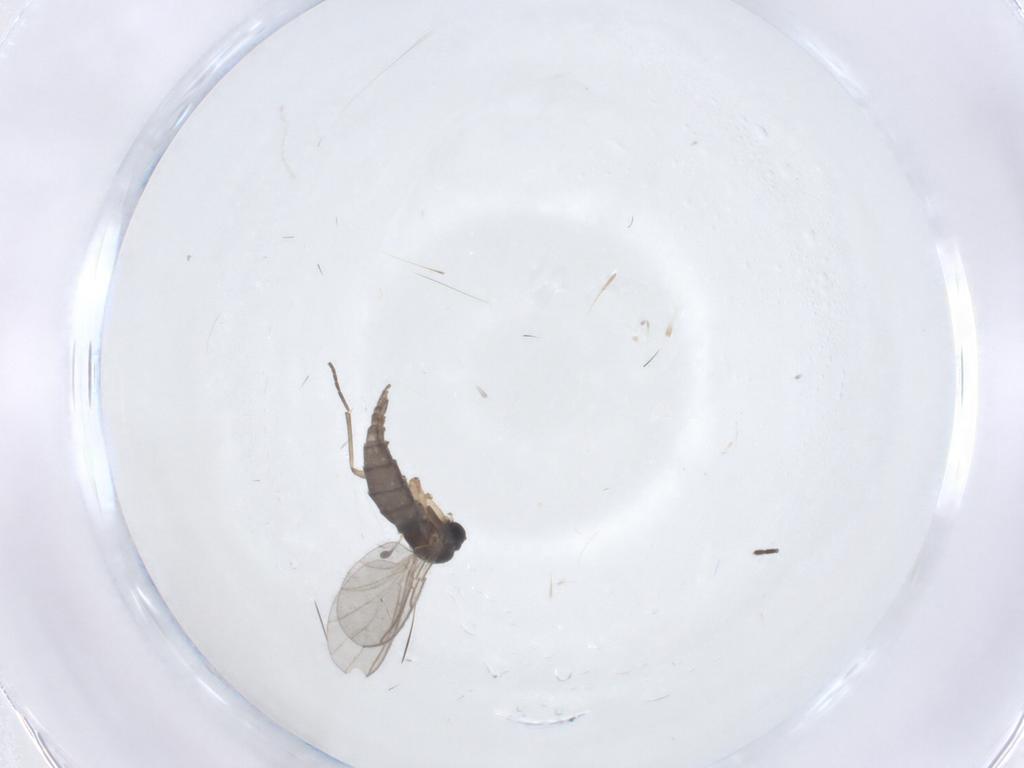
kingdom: Animalia
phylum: Arthropoda
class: Insecta
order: Diptera
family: Sciaridae
